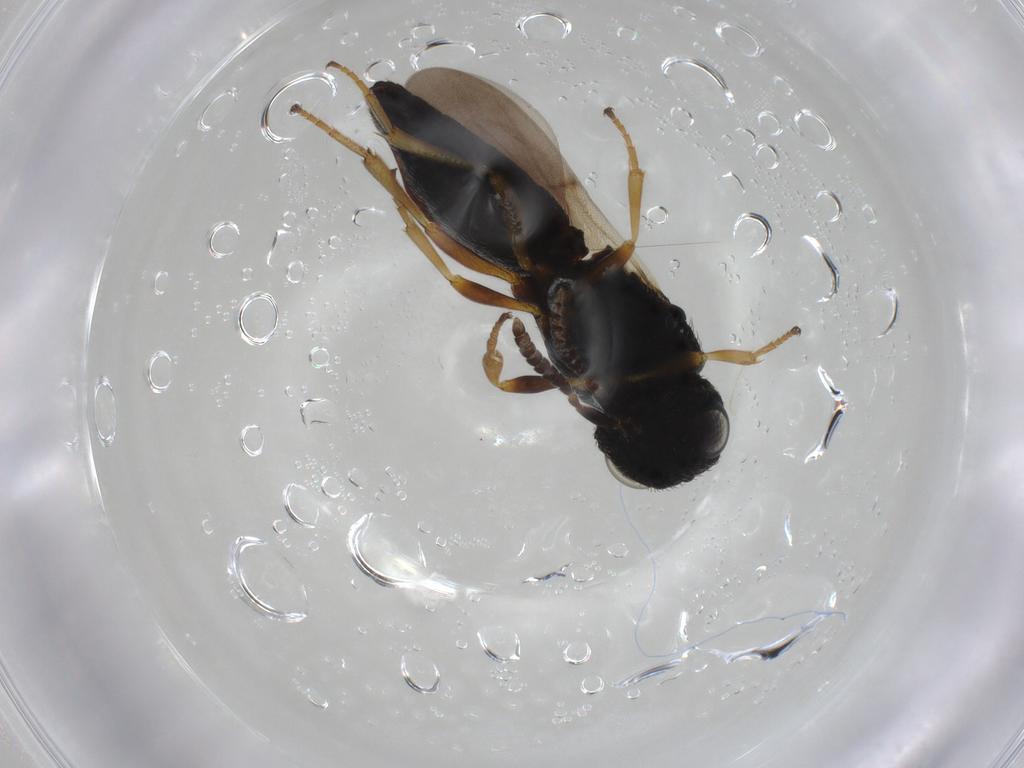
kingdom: Animalia
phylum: Arthropoda
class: Insecta
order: Hymenoptera
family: Scelionidae
